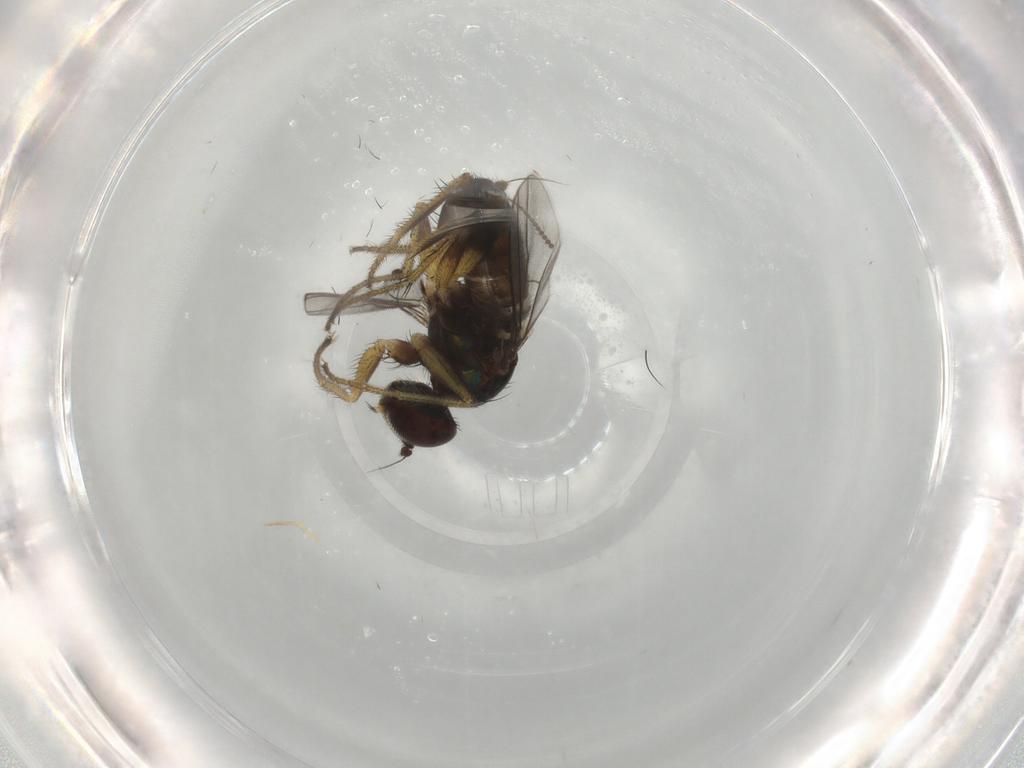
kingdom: Animalia
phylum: Arthropoda
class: Insecta
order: Diptera
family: Dolichopodidae
